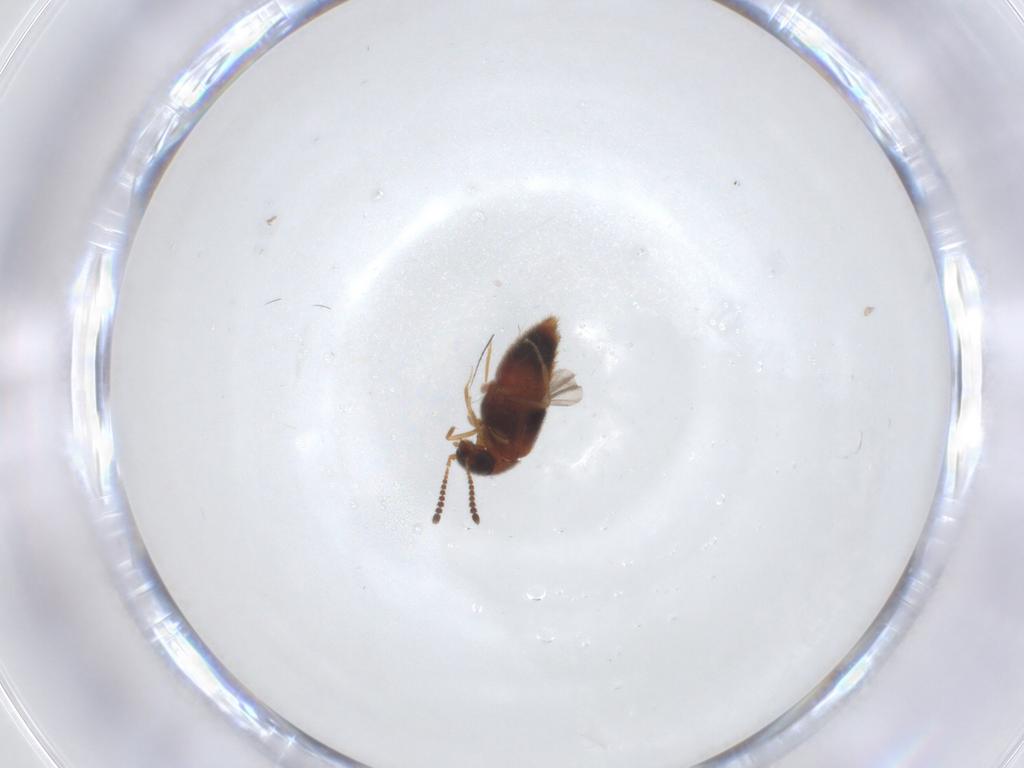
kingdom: Animalia
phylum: Arthropoda
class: Insecta
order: Coleoptera
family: Staphylinidae
